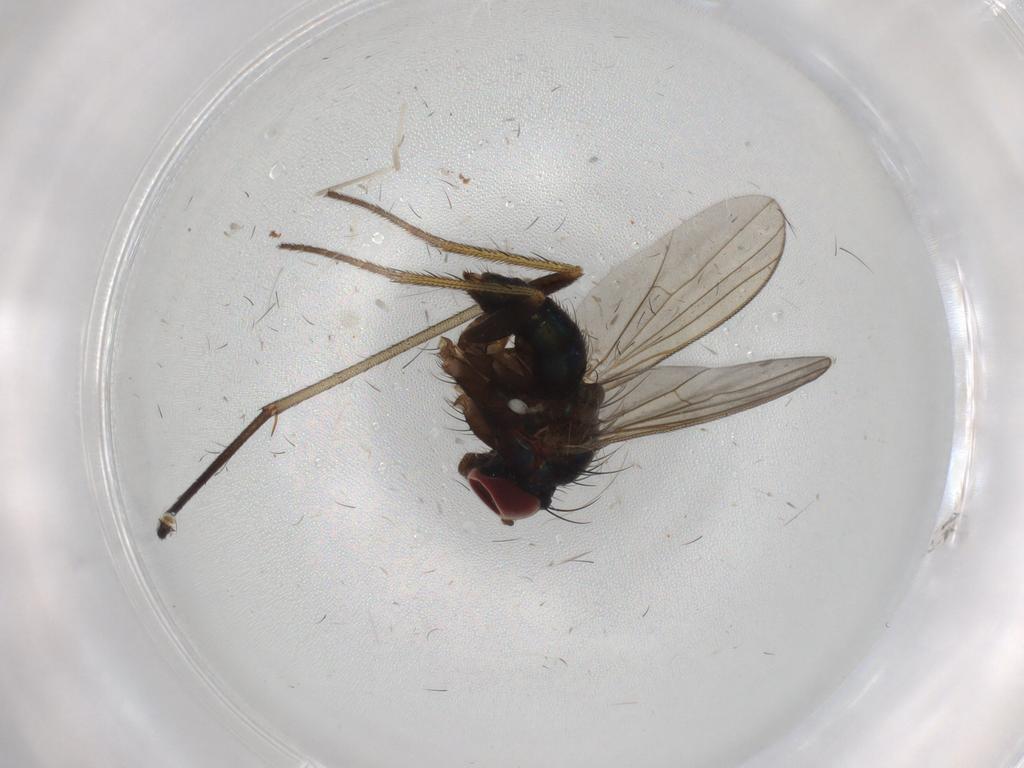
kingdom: Animalia
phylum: Arthropoda
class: Insecta
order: Diptera
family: Rhagionidae
